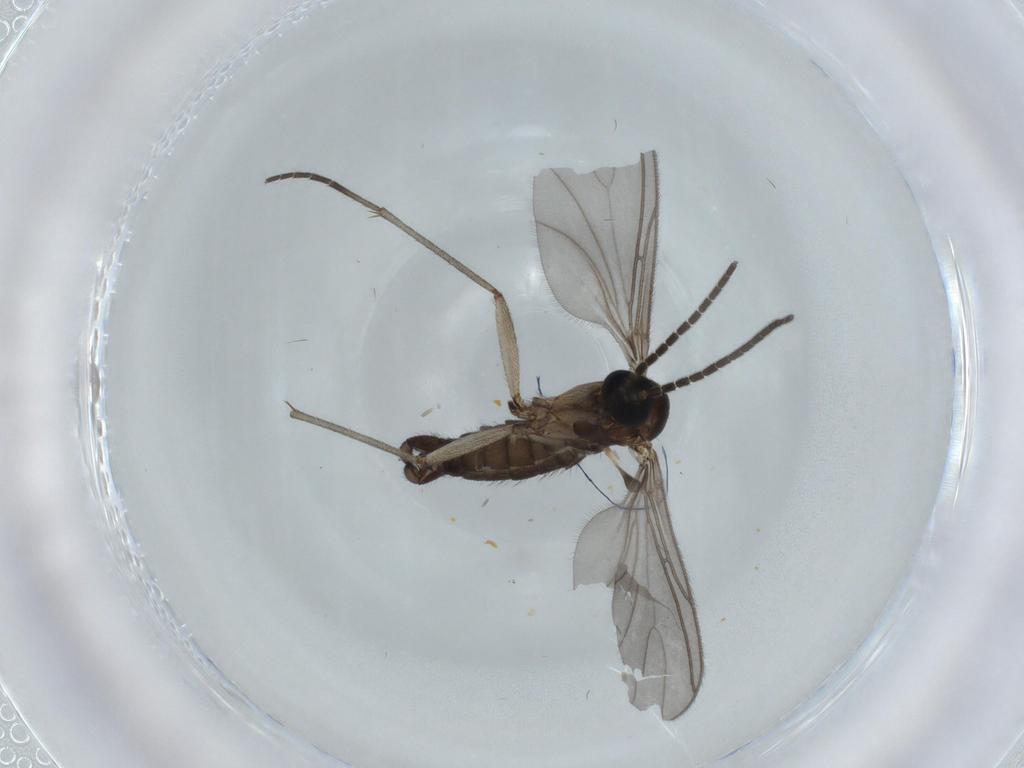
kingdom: Animalia
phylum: Arthropoda
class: Insecta
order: Diptera
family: Sciaridae
